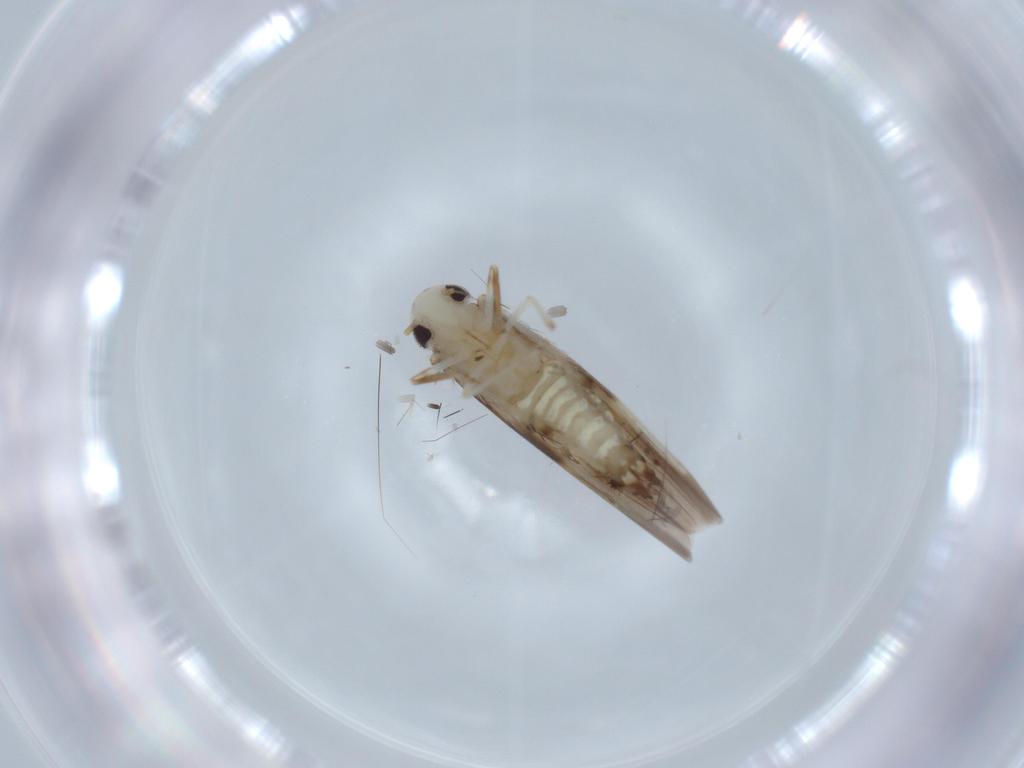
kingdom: Animalia
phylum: Arthropoda
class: Insecta
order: Hemiptera
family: Cicadellidae
